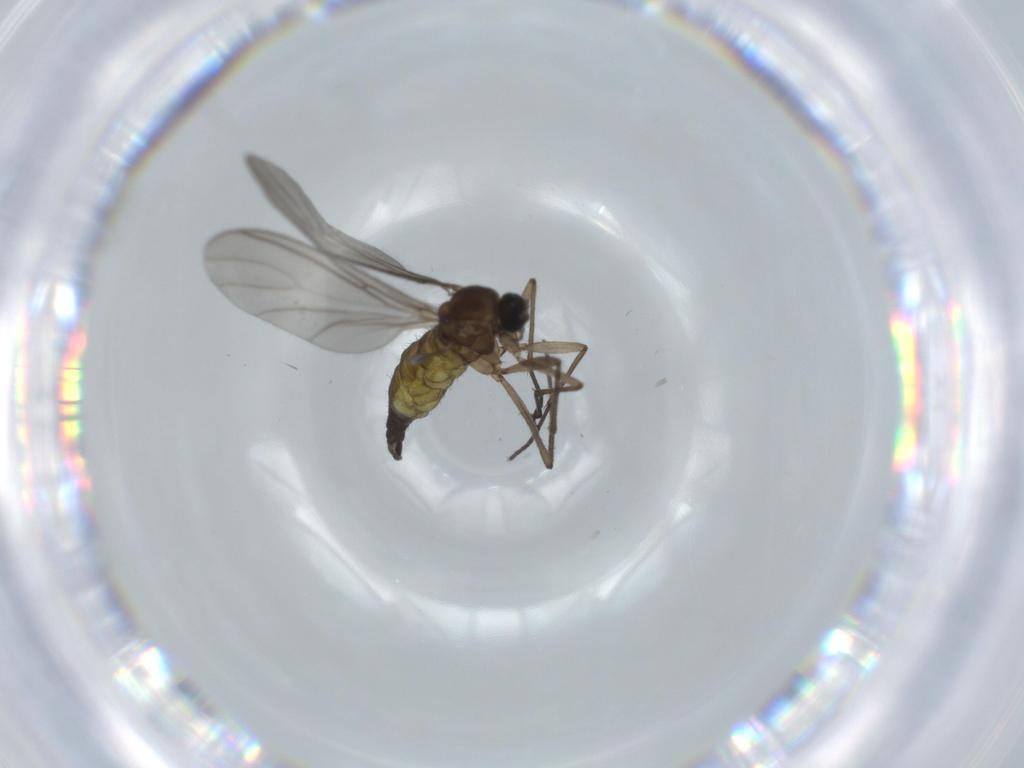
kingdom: Animalia
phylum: Arthropoda
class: Insecta
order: Diptera
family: Sciaridae
